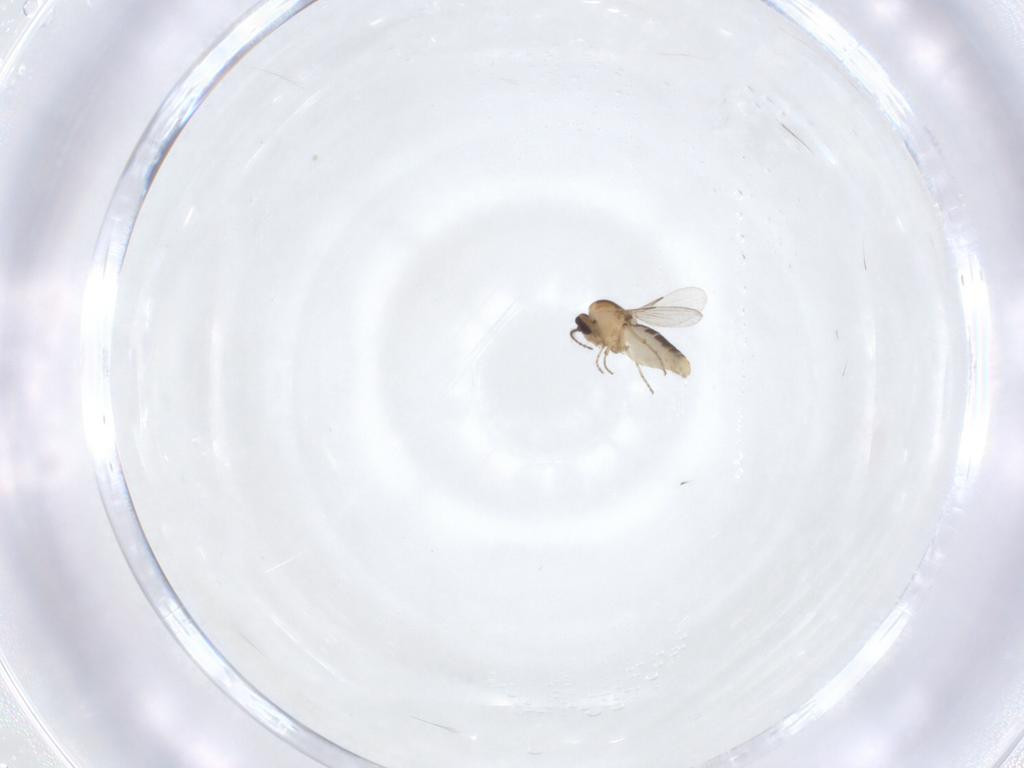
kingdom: Animalia
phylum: Arthropoda
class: Insecta
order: Diptera
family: Ceratopogonidae
